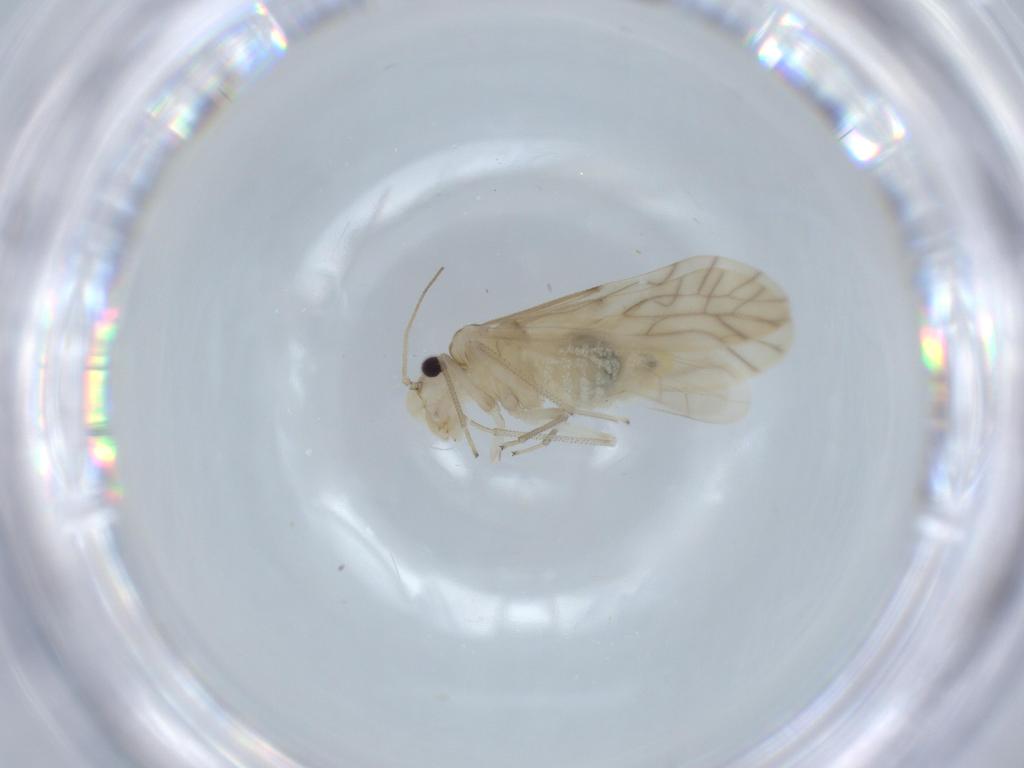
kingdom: Animalia
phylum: Arthropoda
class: Insecta
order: Psocodea
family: Caeciliusidae
